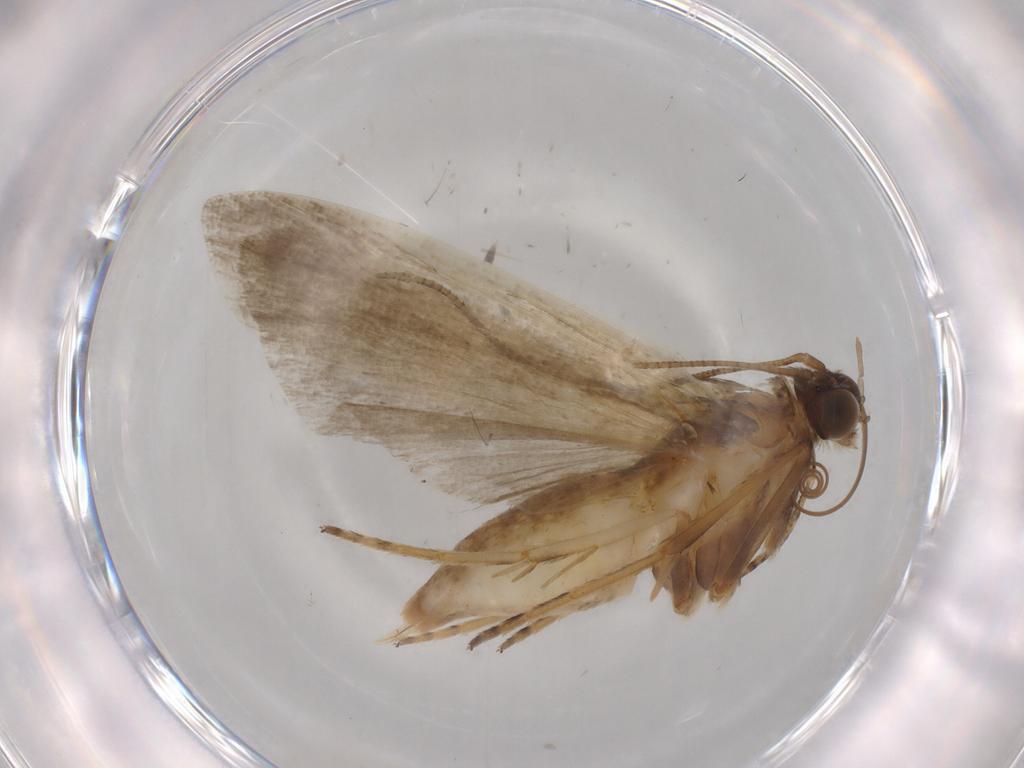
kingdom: Animalia
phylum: Arthropoda
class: Insecta
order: Lepidoptera
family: Noctuidae
